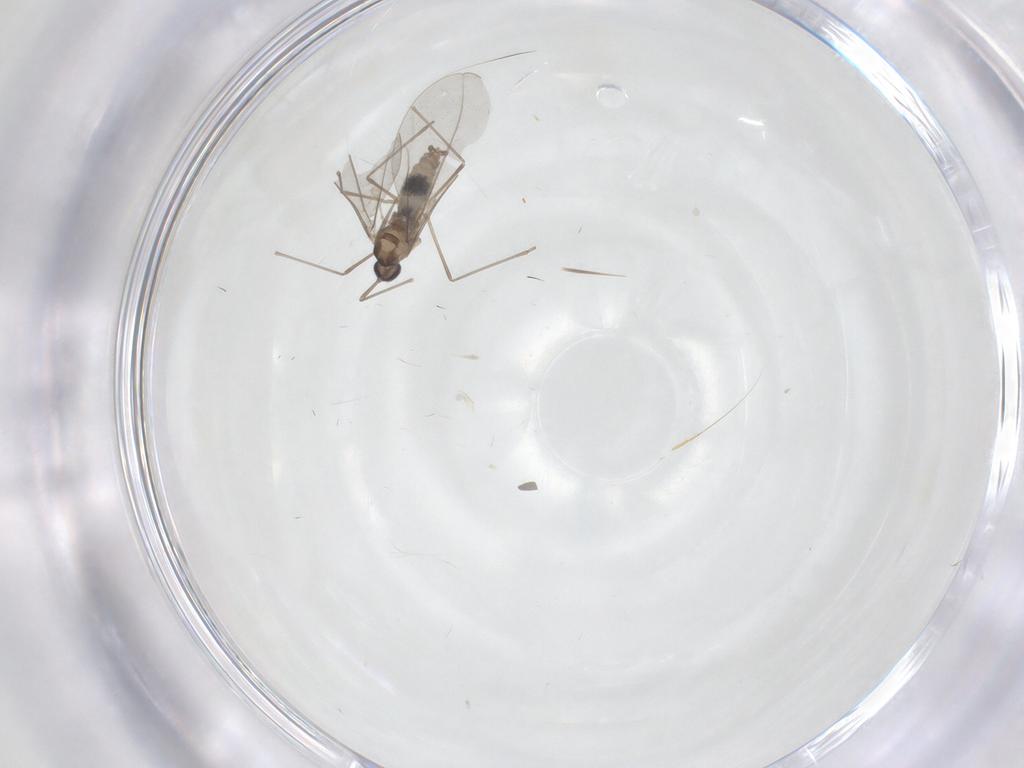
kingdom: Animalia
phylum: Arthropoda
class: Insecta
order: Diptera
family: Cecidomyiidae
